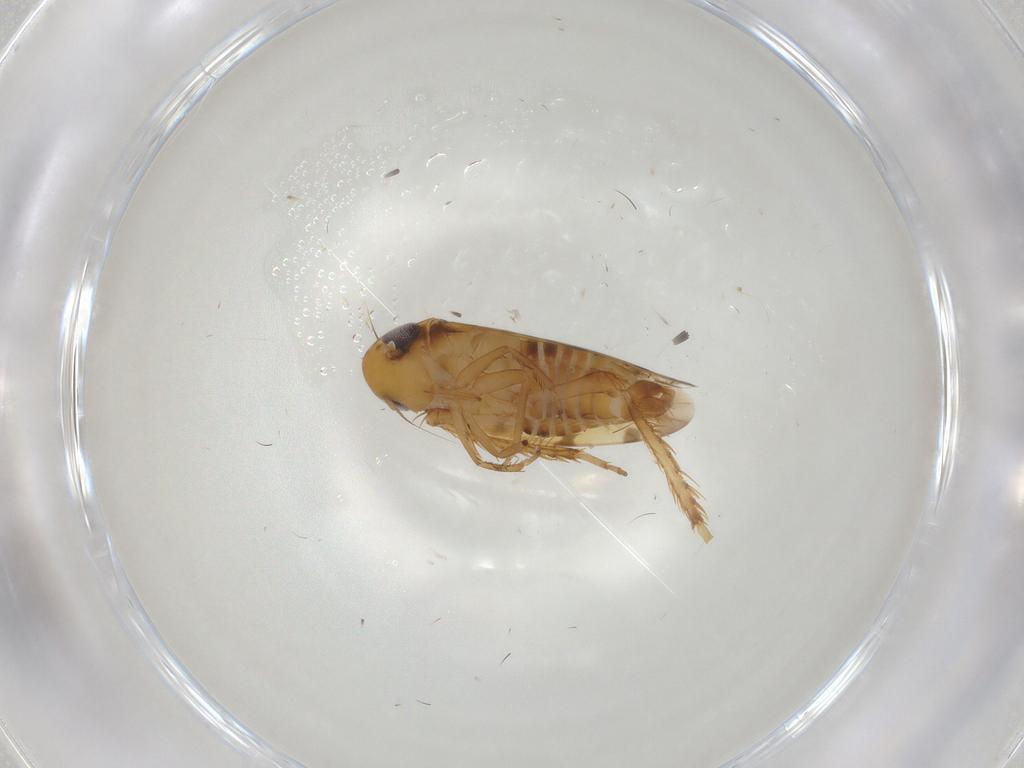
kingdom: Animalia
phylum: Arthropoda
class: Insecta
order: Hemiptera
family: Cicadellidae
